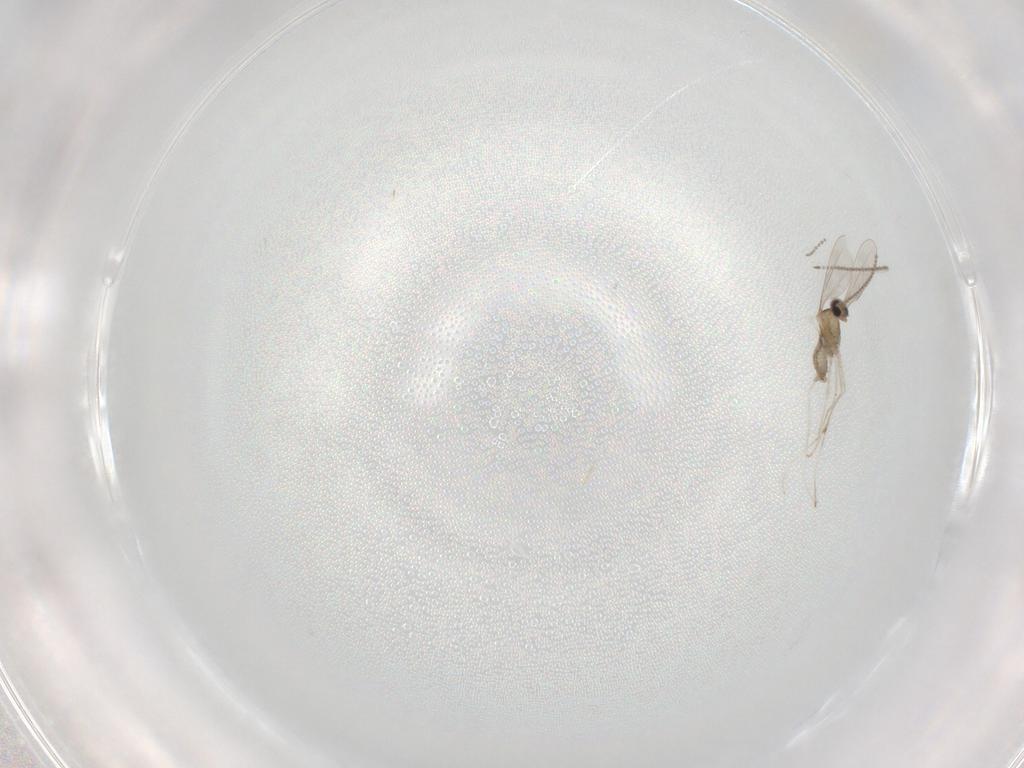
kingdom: Animalia
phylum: Arthropoda
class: Insecta
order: Diptera
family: Cecidomyiidae
